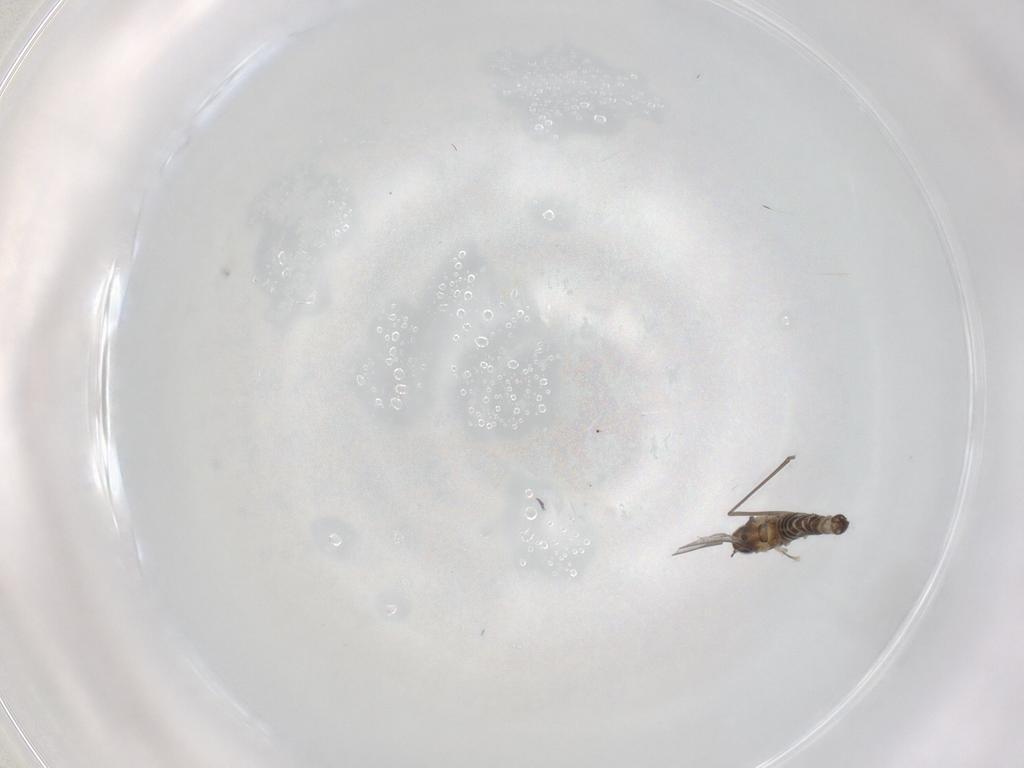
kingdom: Animalia
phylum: Arthropoda
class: Insecta
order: Diptera
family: Cecidomyiidae
